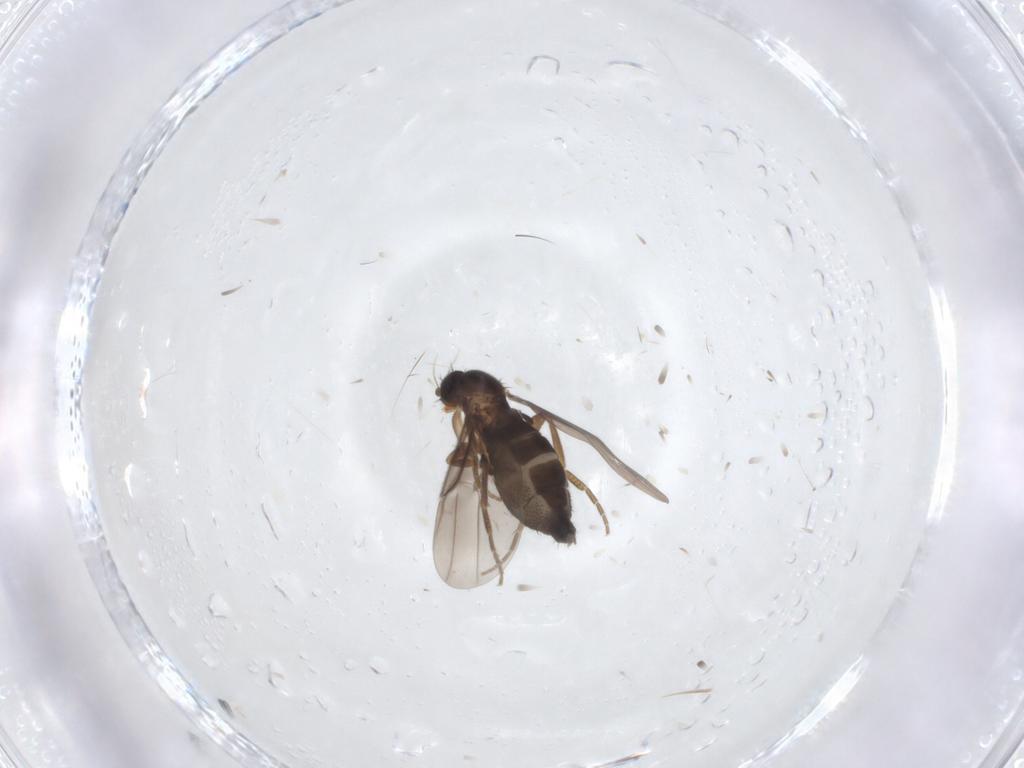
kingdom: Animalia
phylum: Arthropoda
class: Insecta
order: Diptera
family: Phoridae
